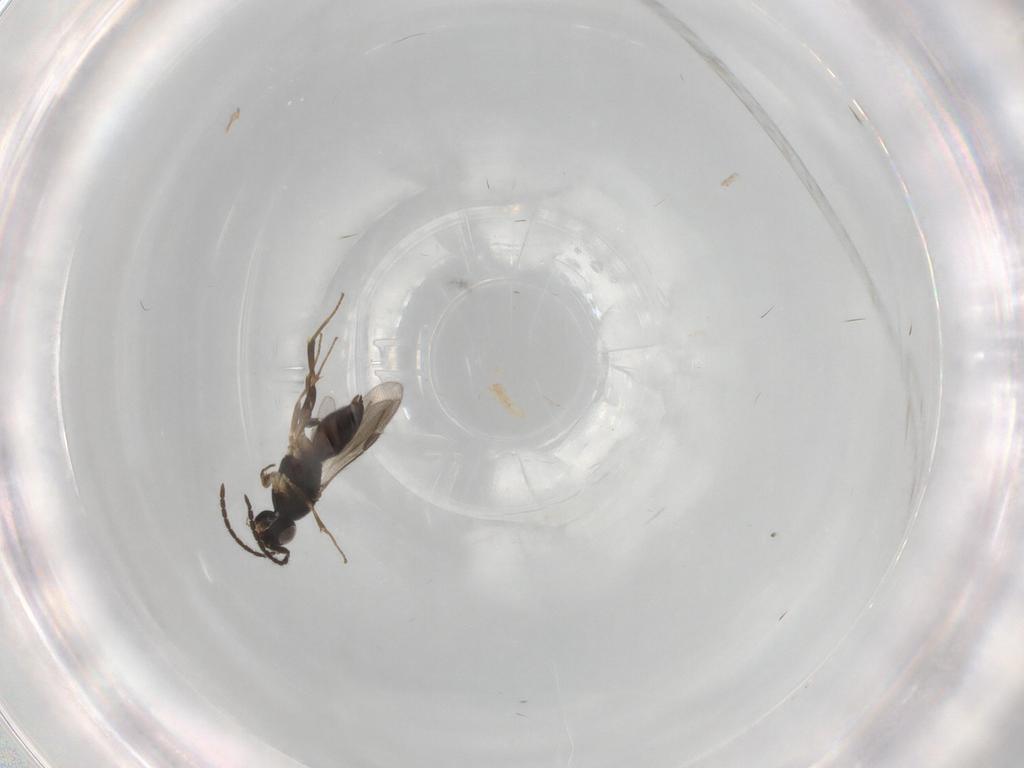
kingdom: Animalia
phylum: Arthropoda
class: Insecta
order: Hymenoptera
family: Megaspilidae
